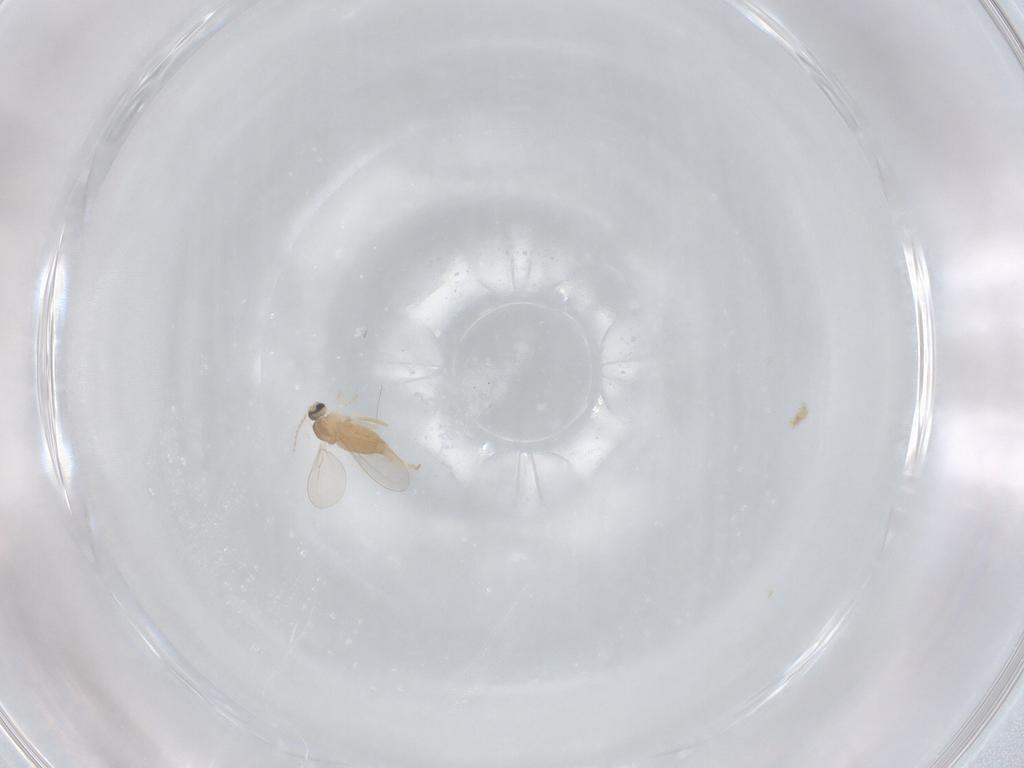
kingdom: Animalia
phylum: Arthropoda
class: Insecta
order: Diptera
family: Cecidomyiidae
